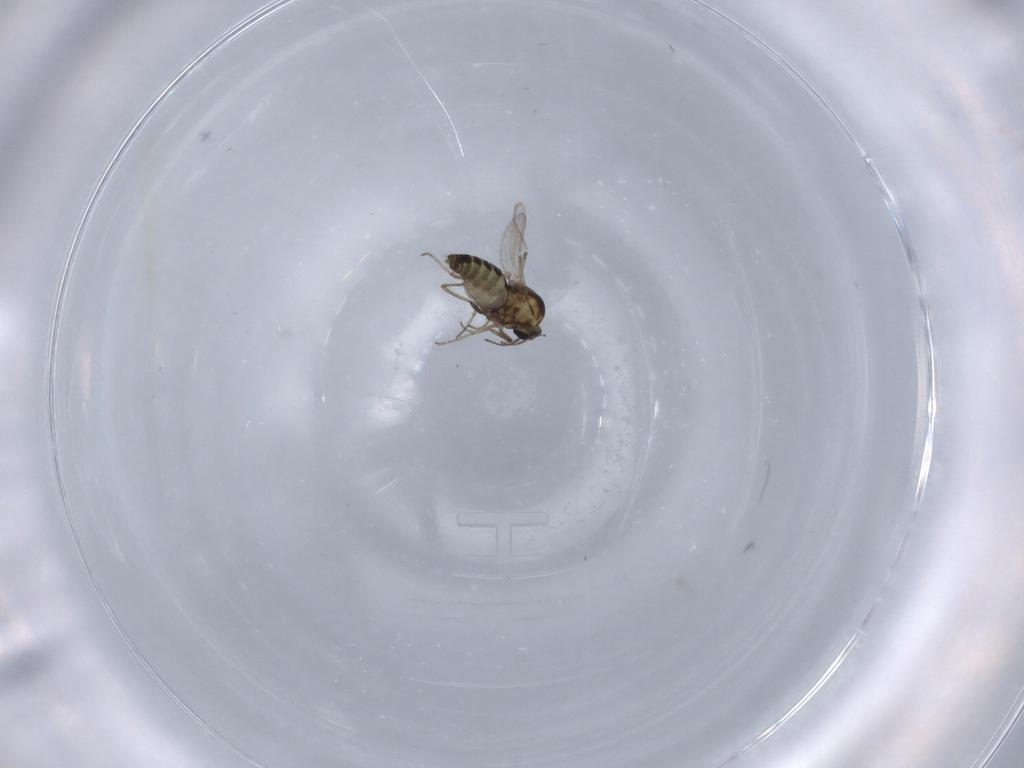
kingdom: Animalia
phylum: Arthropoda
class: Insecta
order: Diptera
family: Ceratopogonidae
